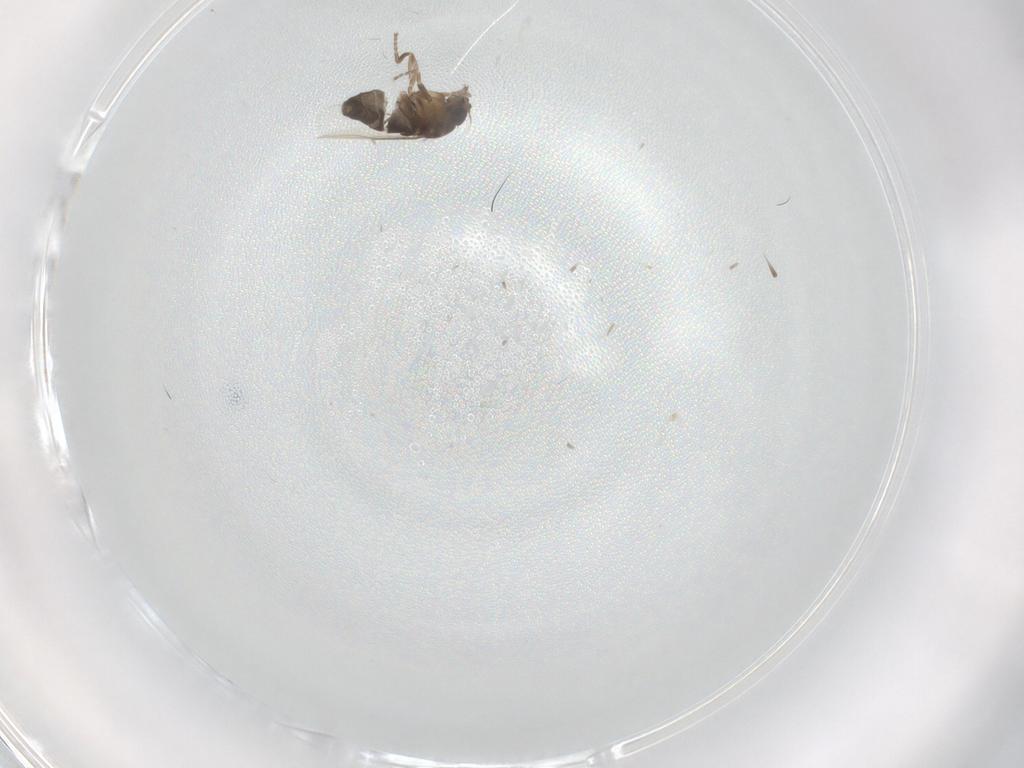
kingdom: Animalia
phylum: Arthropoda
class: Insecta
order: Diptera
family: Phoridae
